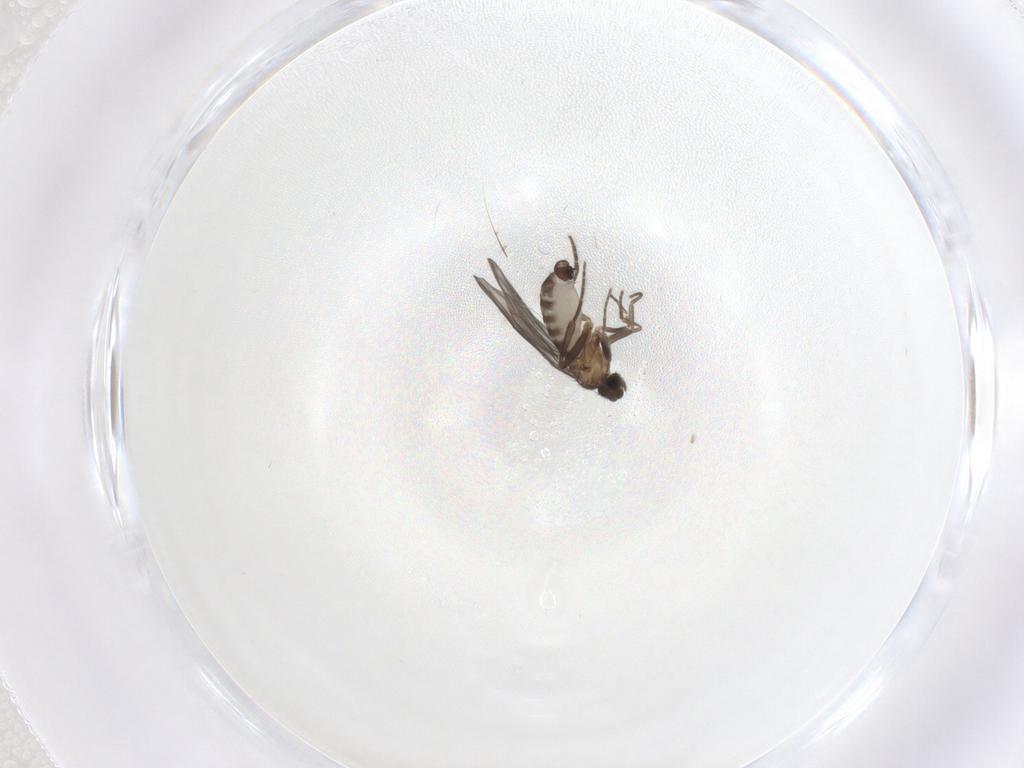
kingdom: Animalia
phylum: Arthropoda
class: Insecta
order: Diptera
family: Phoridae
